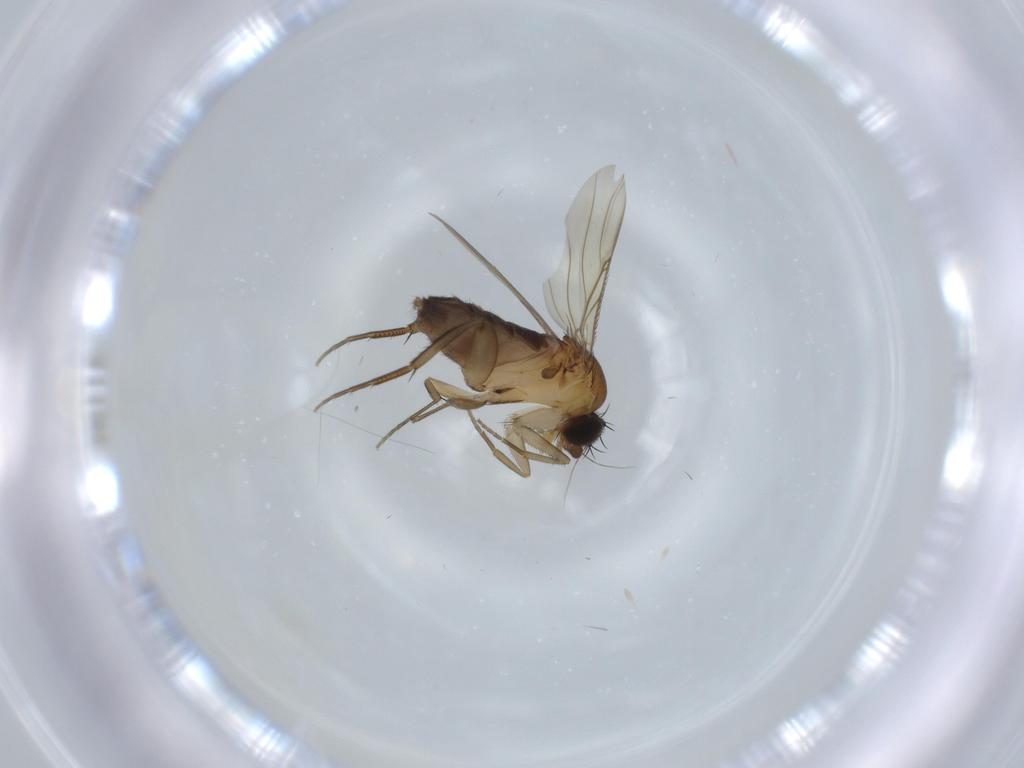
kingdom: Animalia
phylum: Arthropoda
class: Insecta
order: Diptera
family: Phoridae
